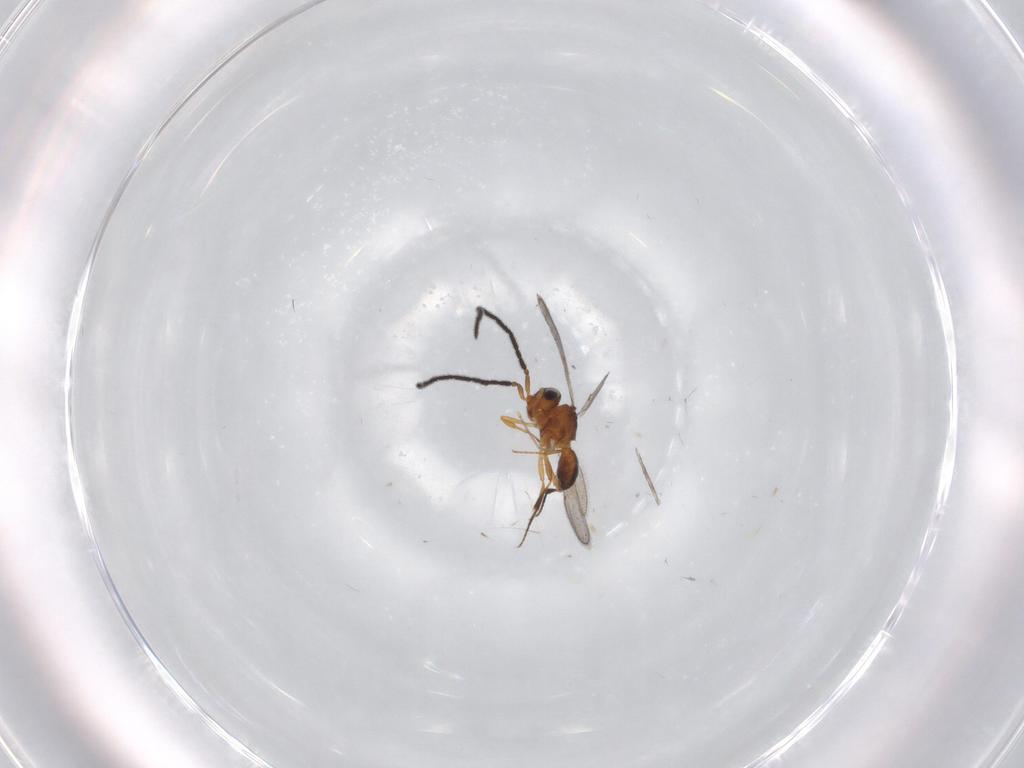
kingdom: Animalia
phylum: Arthropoda
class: Insecta
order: Hymenoptera
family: Scelionidae
